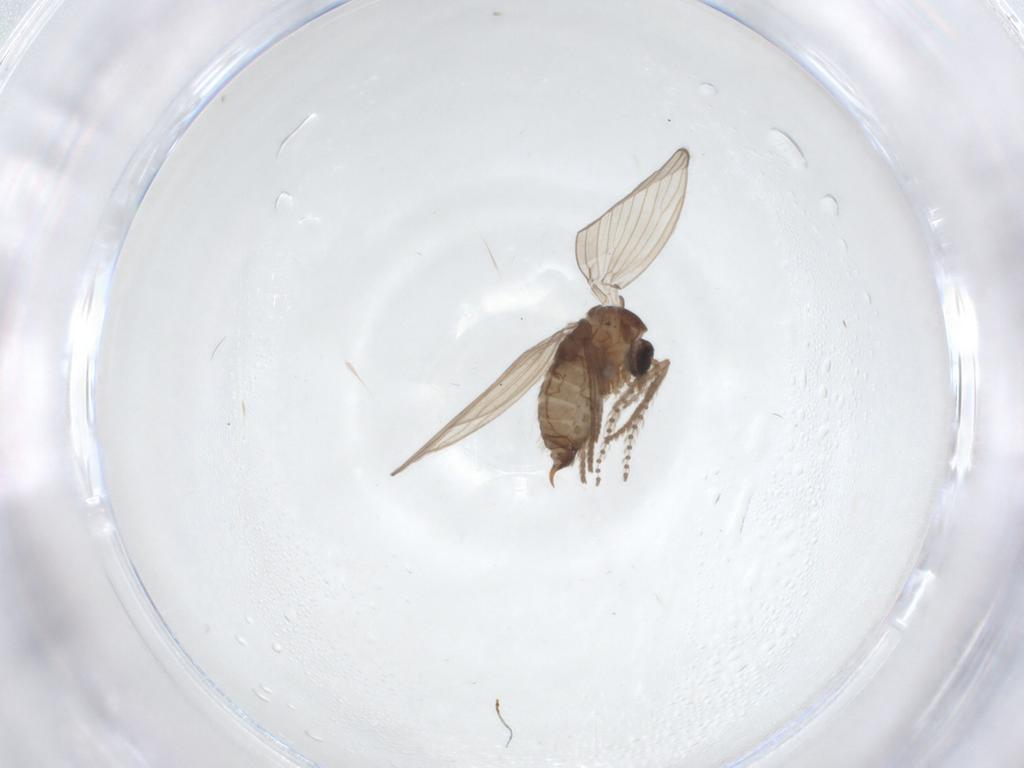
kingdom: Animalia
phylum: Arthropoda
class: Insecta
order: Diptera
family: Psychodidae
